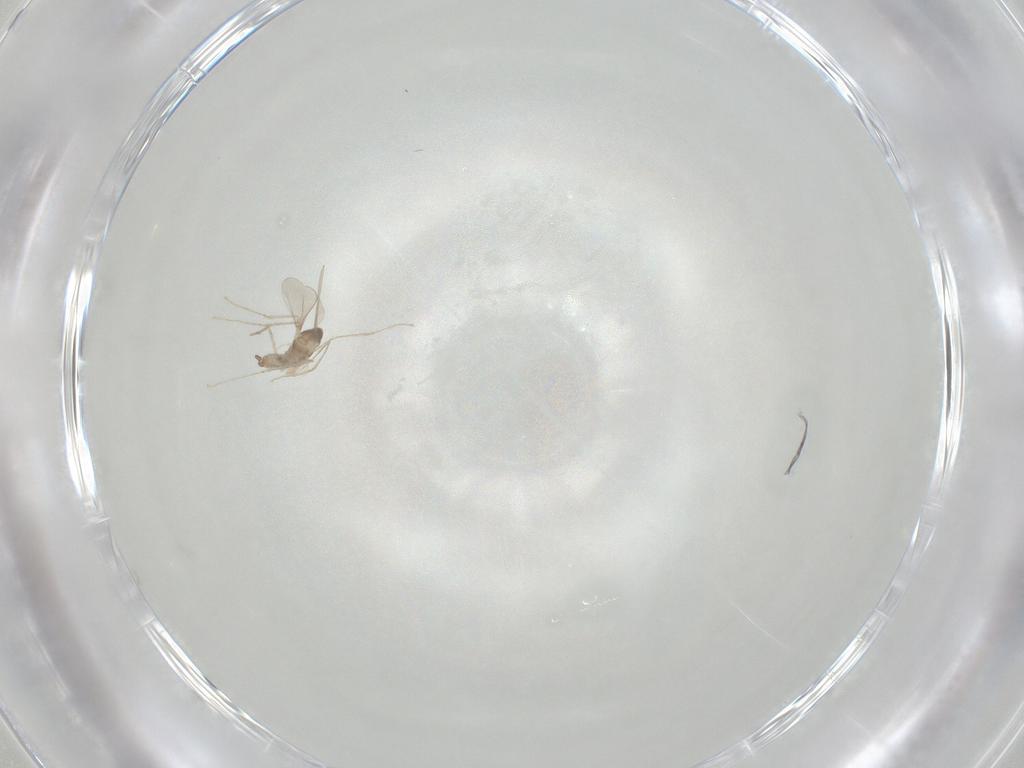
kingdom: Animalia
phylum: Arthropoda
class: Insecta
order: Diptera
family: Cecidomyiidae
